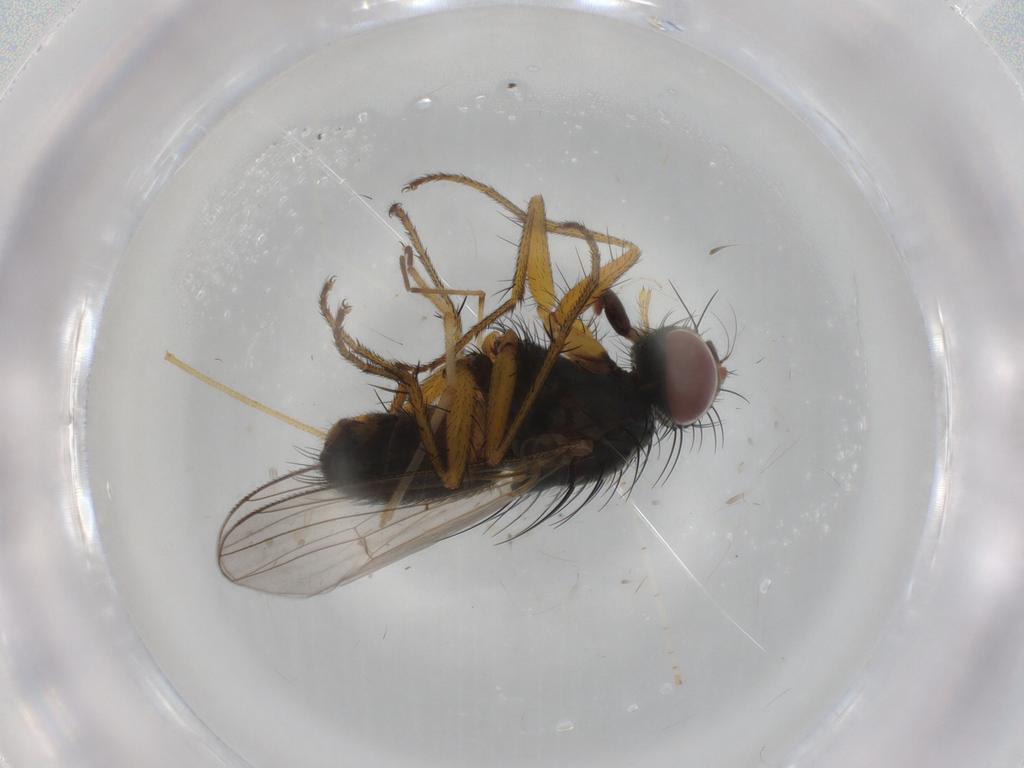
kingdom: Animalia
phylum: Arthropoda
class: Insecta
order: Diptera
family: Muscidae
